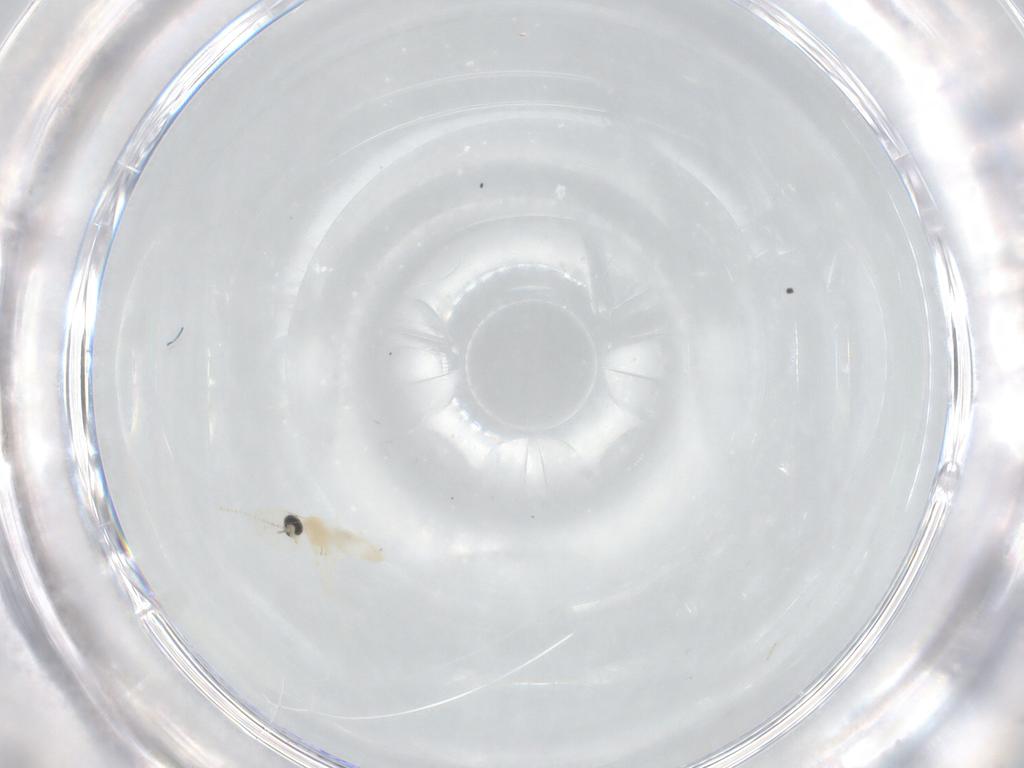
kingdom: Animalia
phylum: Arthropoda
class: Insecta
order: Diptera
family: Cecidomyiidae
